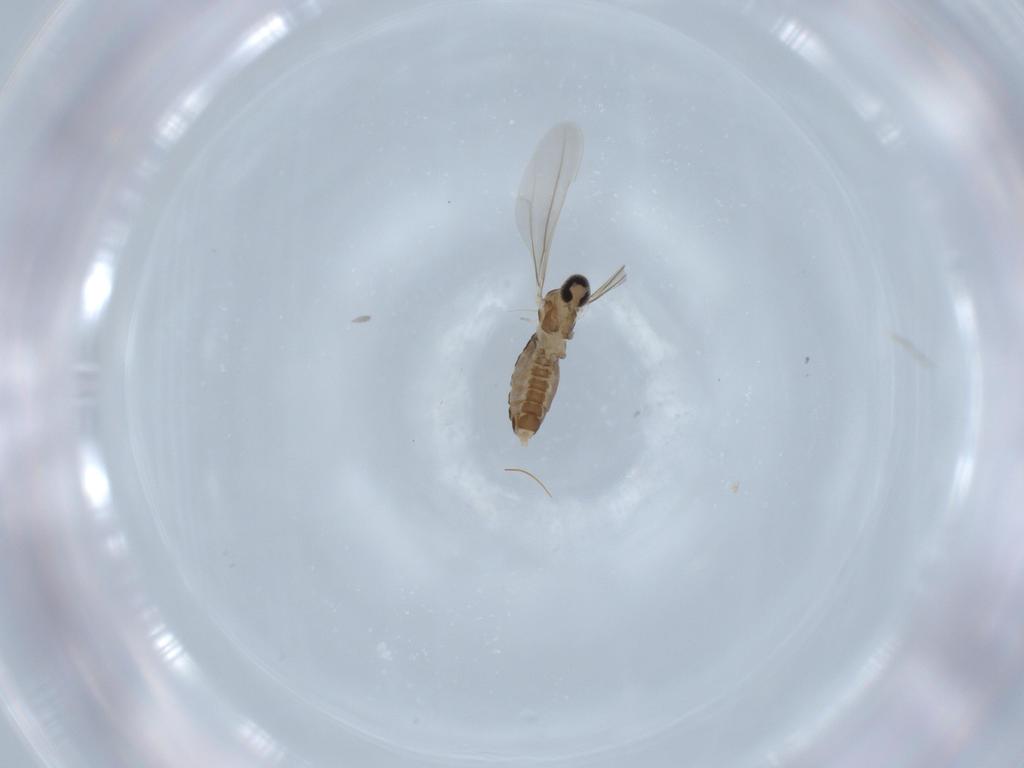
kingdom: Animalia
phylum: Arthropoda
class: Insecta
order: Diptera
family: Cecidomyiidae
